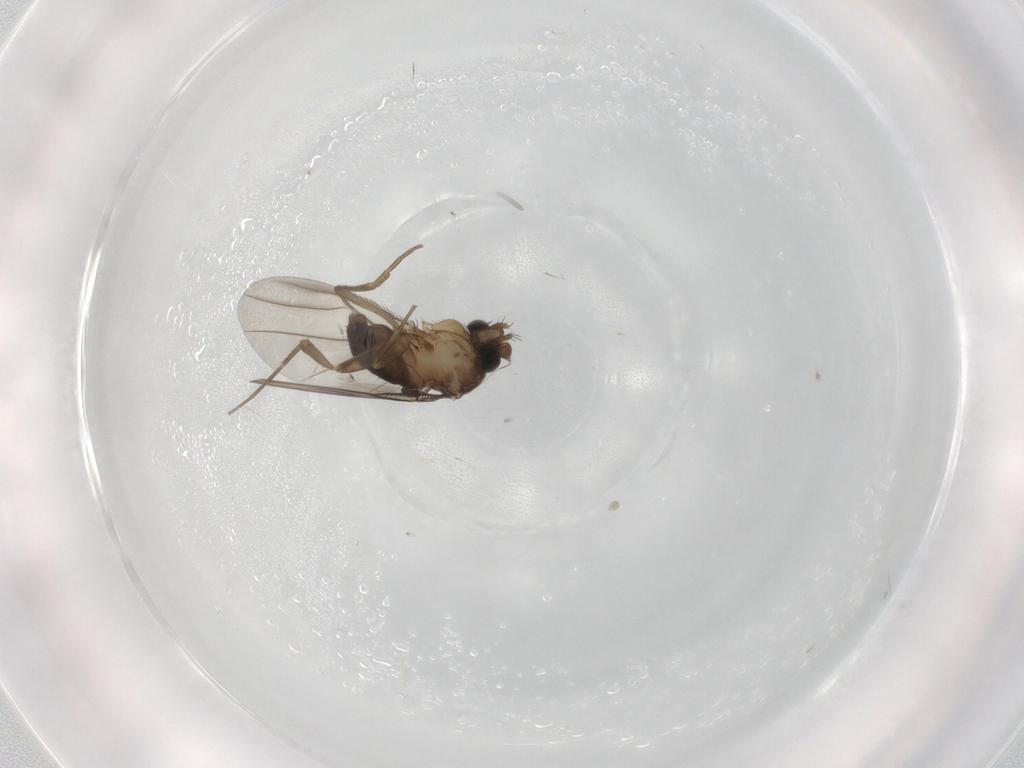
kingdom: Animalia
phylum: Arthropoda
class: Insecta
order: Diptera
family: Phoridae
